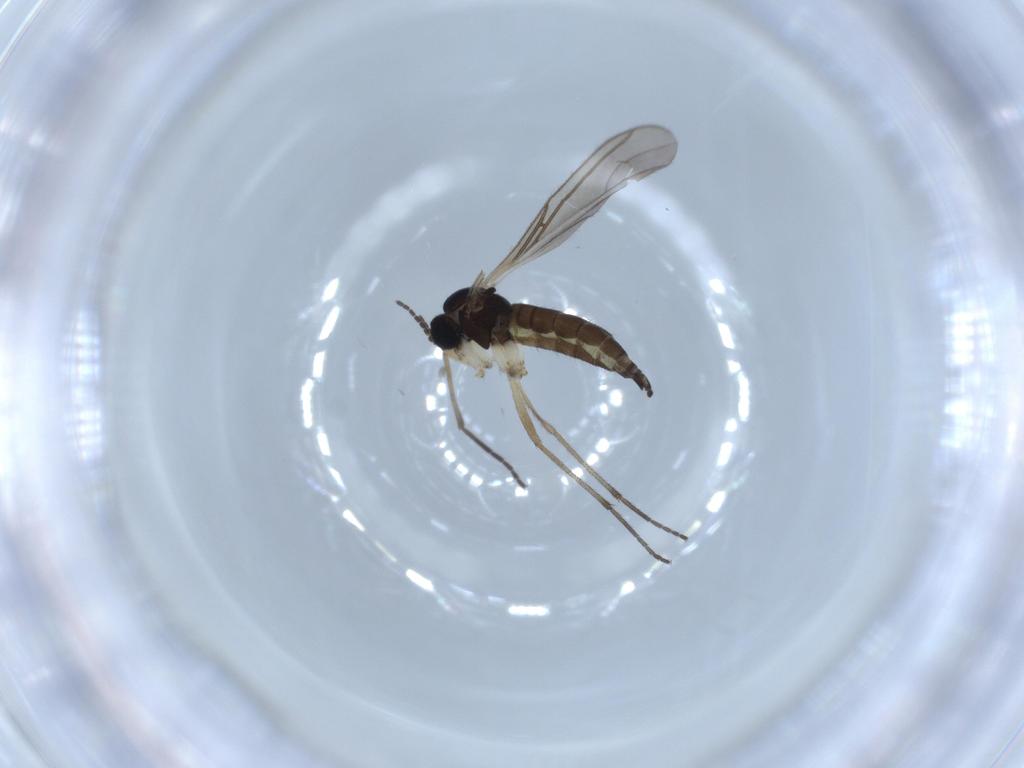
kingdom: Animalia
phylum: Arthropoda
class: Insecta
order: Diptera
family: Sciaridae
